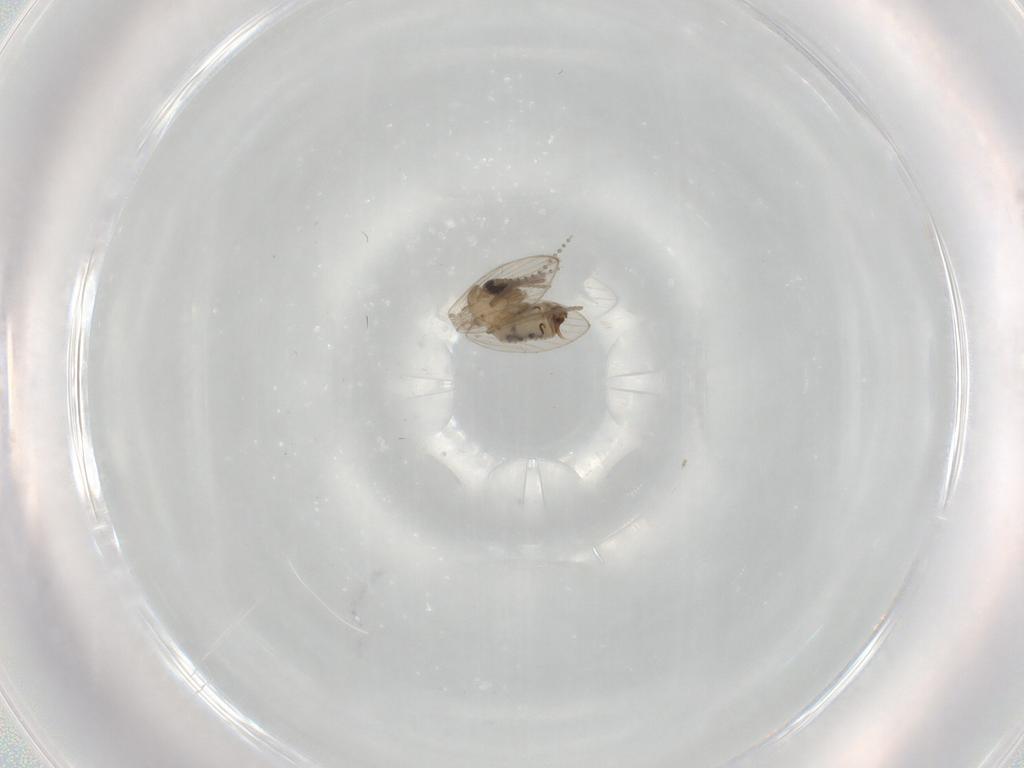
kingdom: Animalia
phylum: Arthropoda
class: Insecta
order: Diptera
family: Psychodidae
